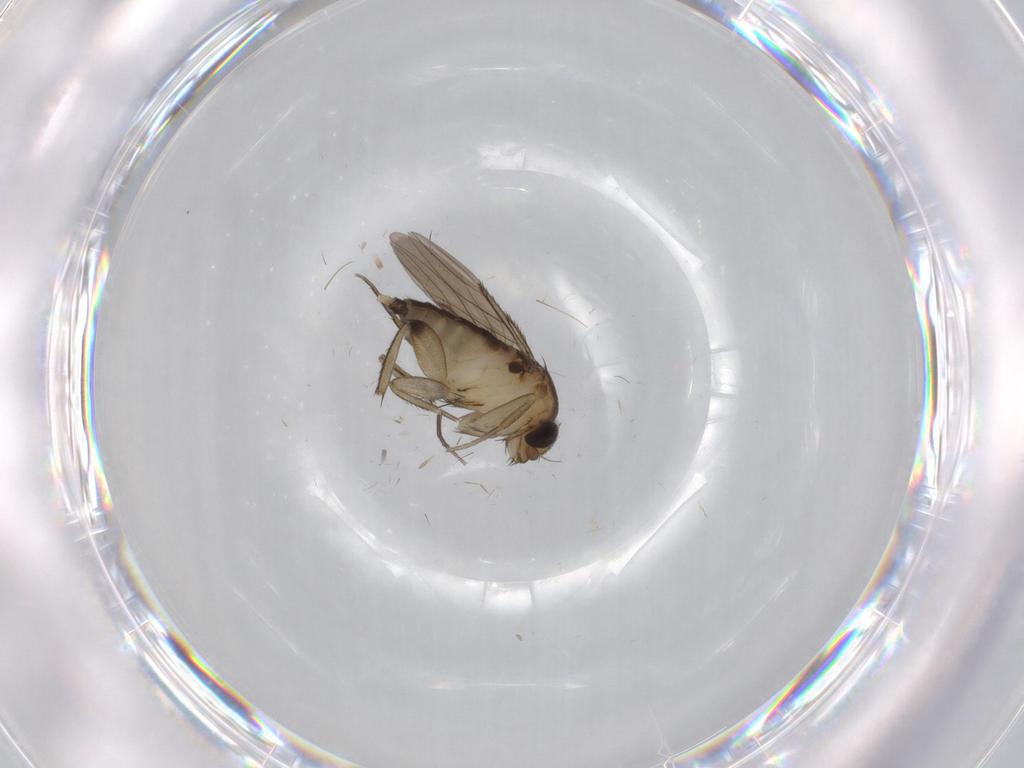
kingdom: Animalia
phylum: Arthropoda
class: Insecta
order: Diptera
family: Chironomidae
